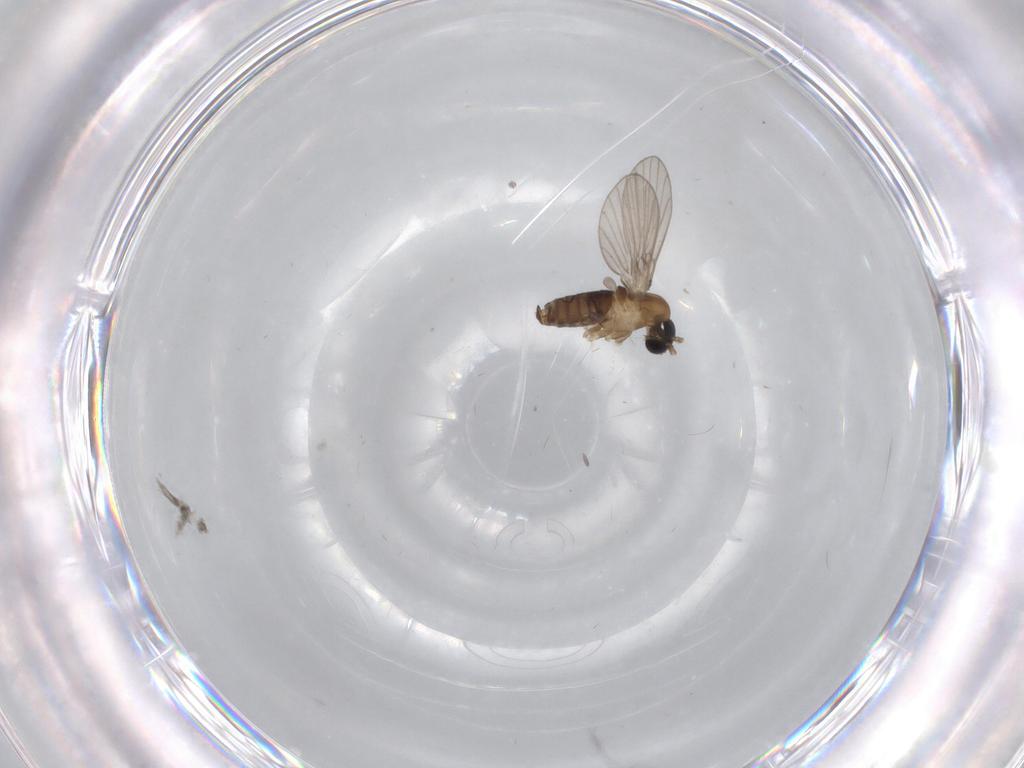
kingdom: Animalia
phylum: Arthropoda
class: Insecta
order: Diptera
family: Psychodidae
